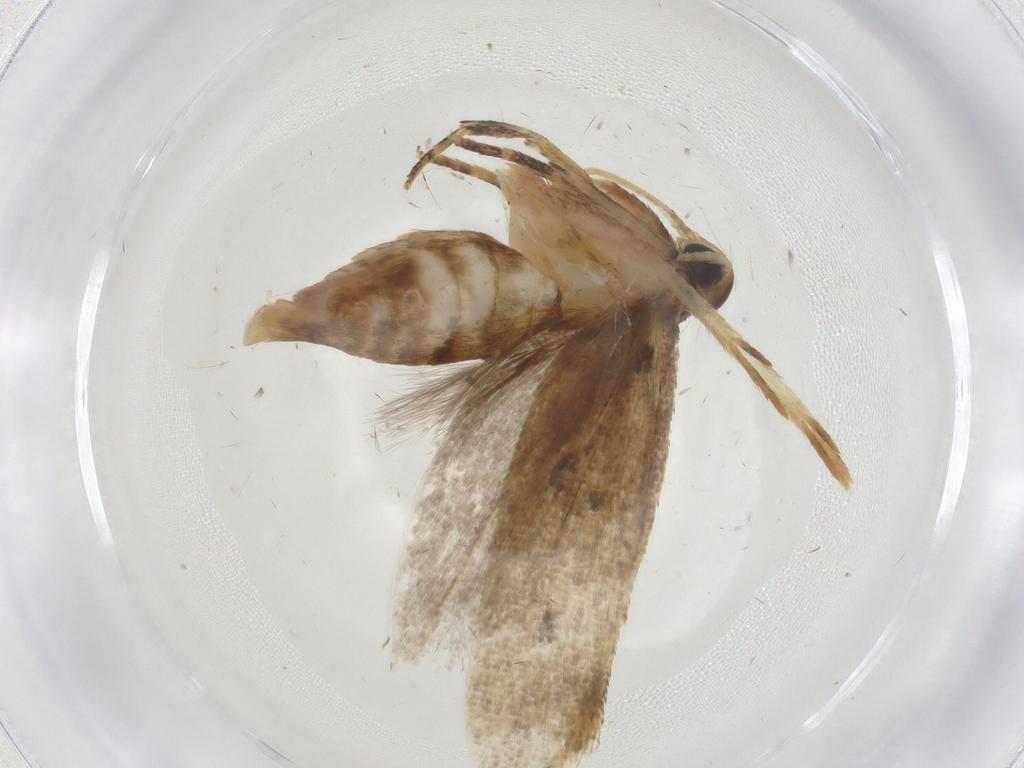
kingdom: Animalia
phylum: Arthropoda
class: Insecta
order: Lepidoptera
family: Oecophoridae
